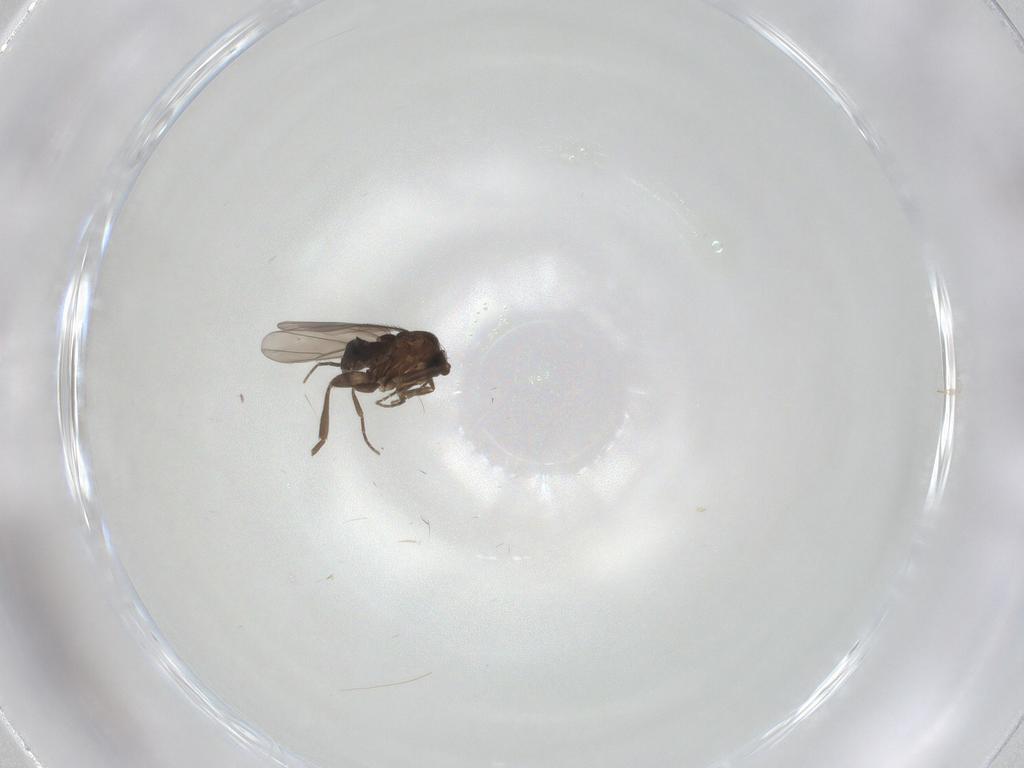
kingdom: Animalia
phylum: Arthropoda
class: Insecta
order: Diptera
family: Phoridae
